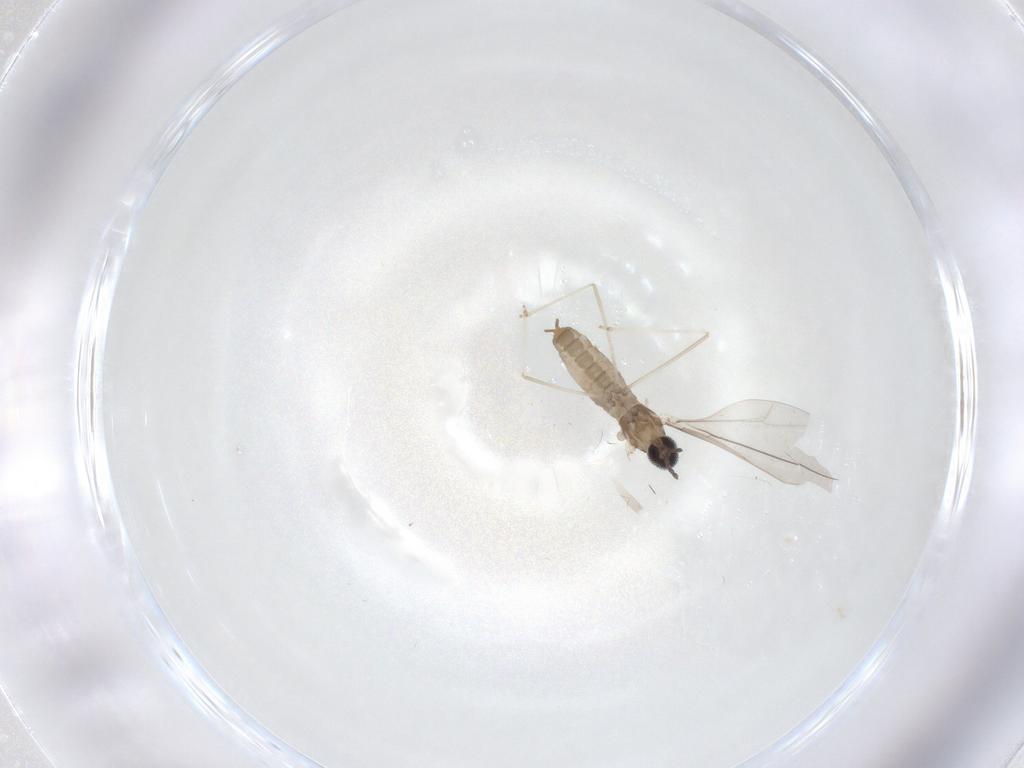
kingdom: Animalia
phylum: Arthropoda
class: Insecta
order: Diptera
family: Cecidomyiidae
